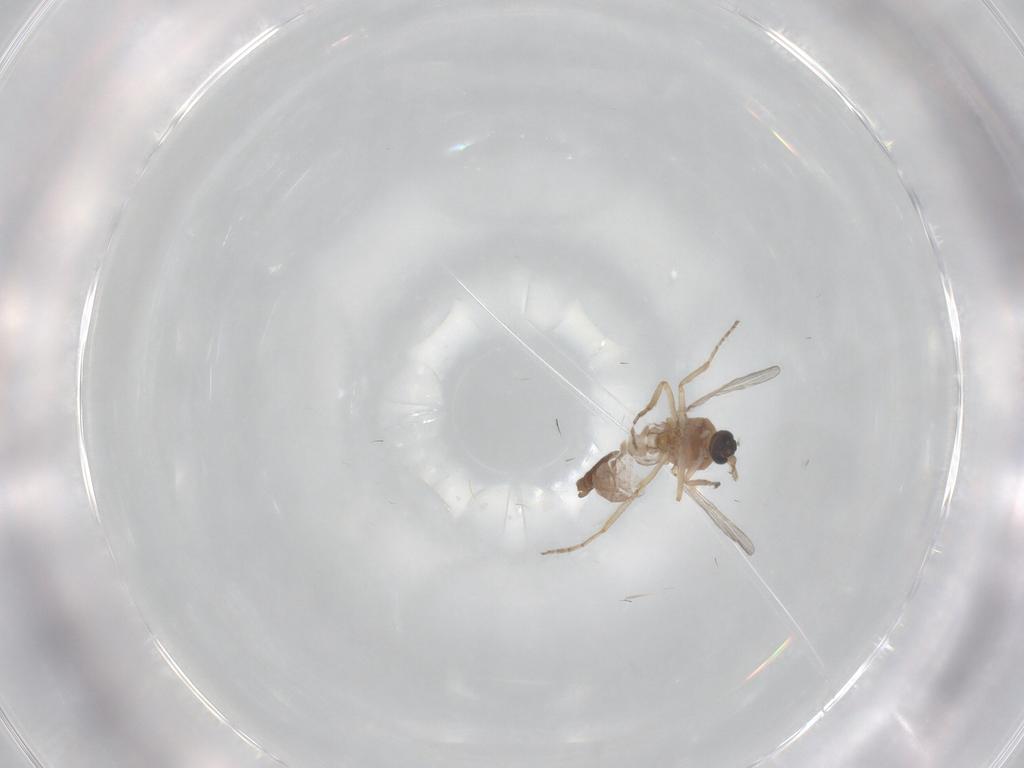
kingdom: Animalia
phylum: Arthropoda
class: Insecta
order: Diptera
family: Ceratopogonidae
